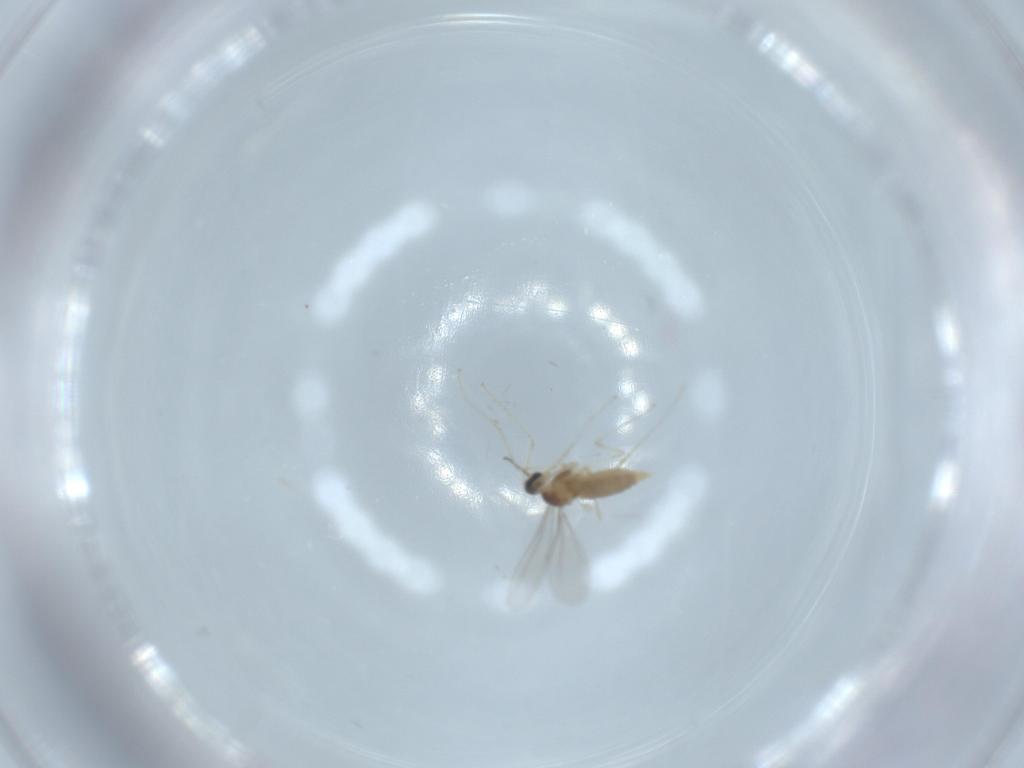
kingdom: Animalia
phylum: Arthropoda
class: Insecta
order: Diptera
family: Cecidomyiidae
